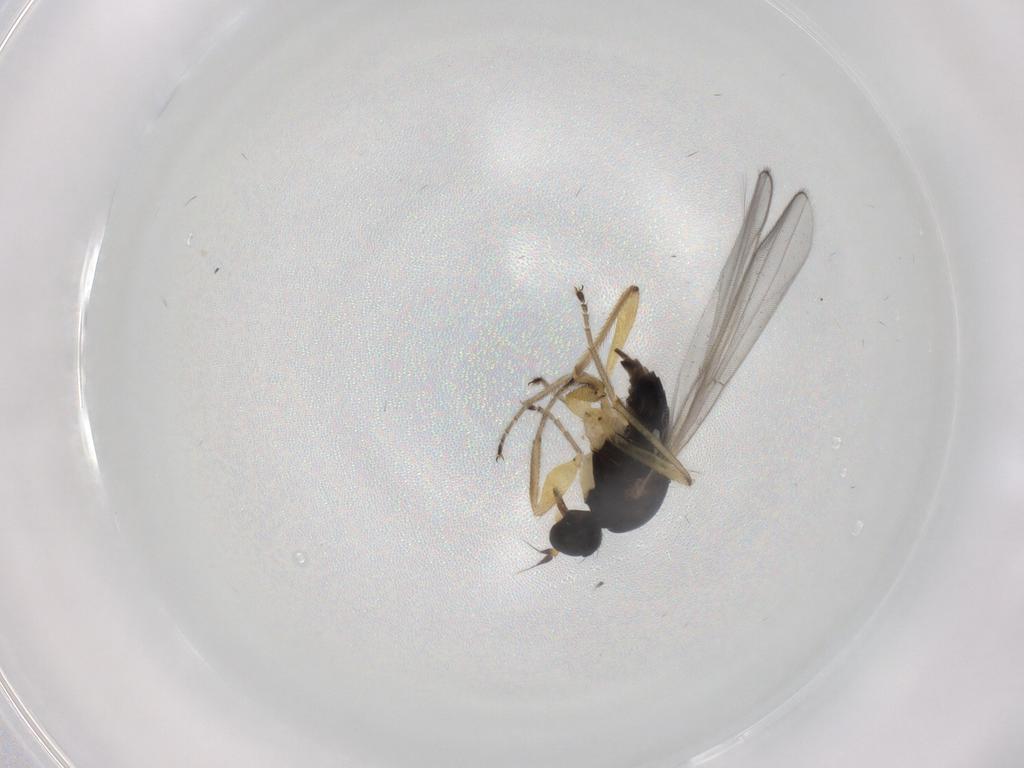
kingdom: Animalia
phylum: Arthropoda
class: Insecta
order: Diptera
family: Hybotidae
